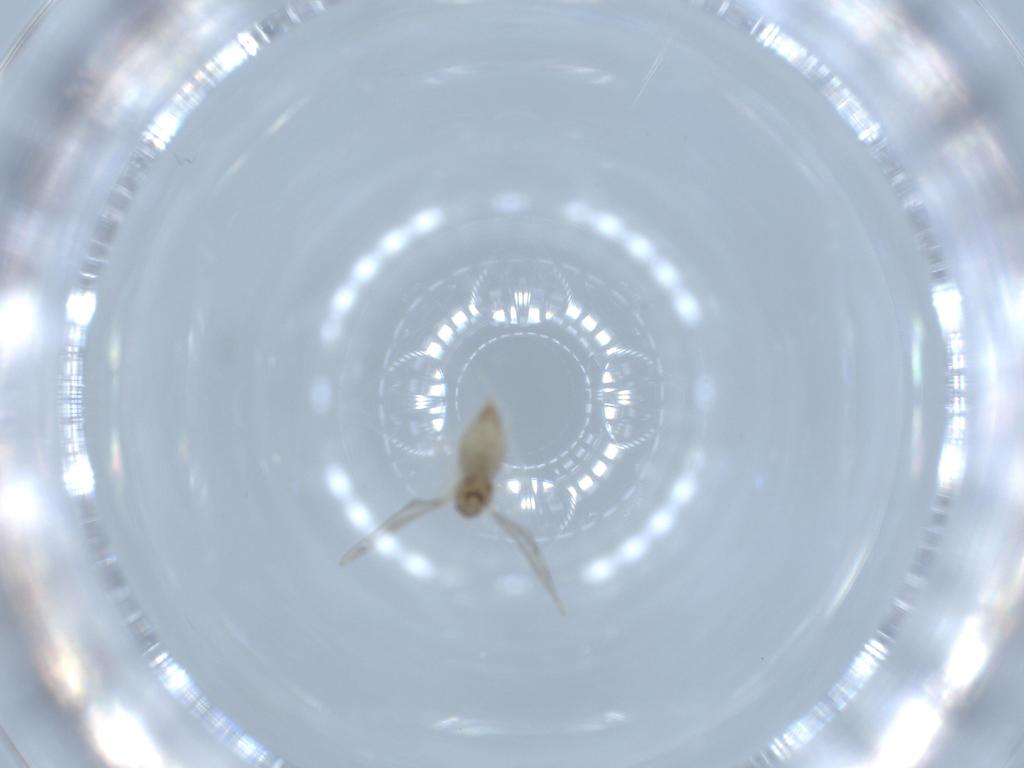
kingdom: Animalia
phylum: Arthropoda
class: Insecta
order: Diptera
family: Cecidomyiidae
